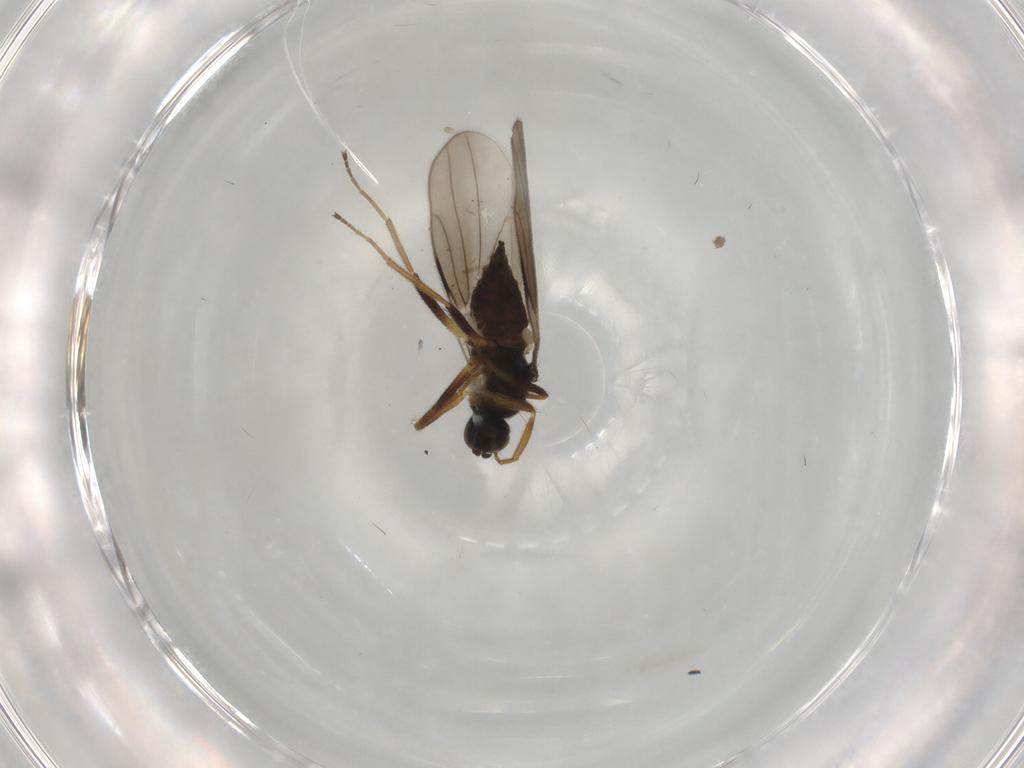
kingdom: Animalia
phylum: Arthropoda
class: Insecta
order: Diptera
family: Hybotidae
